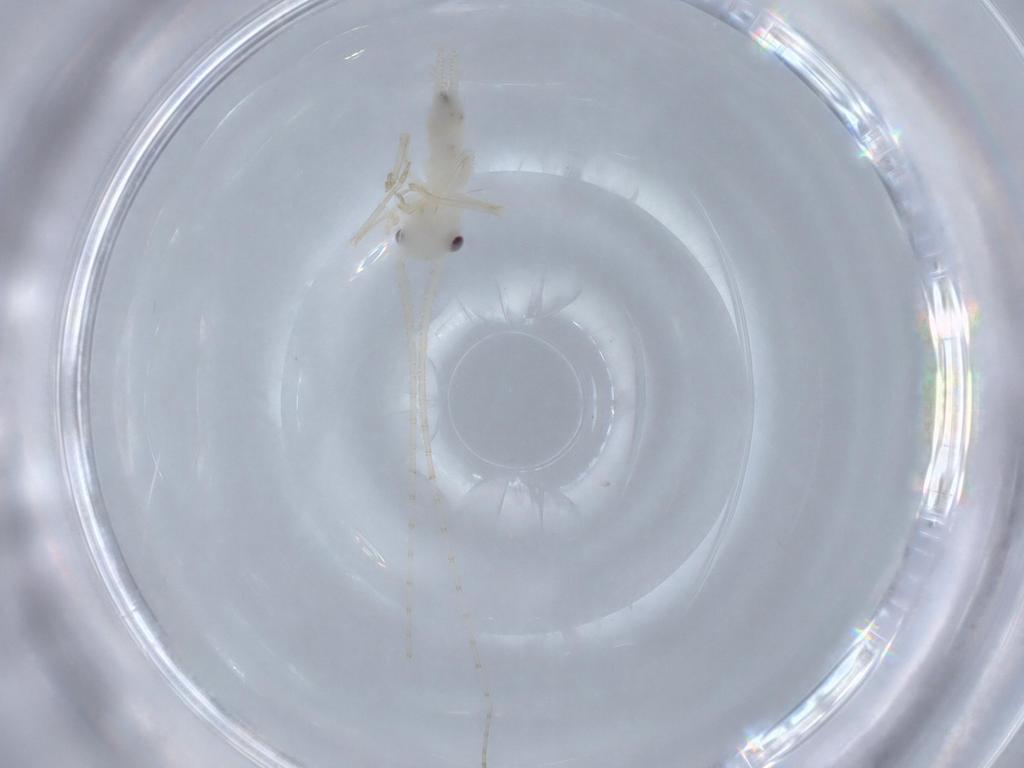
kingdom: Animalia
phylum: Arthropoda
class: Insecta
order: Orthoptera
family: Trigonidiidae
